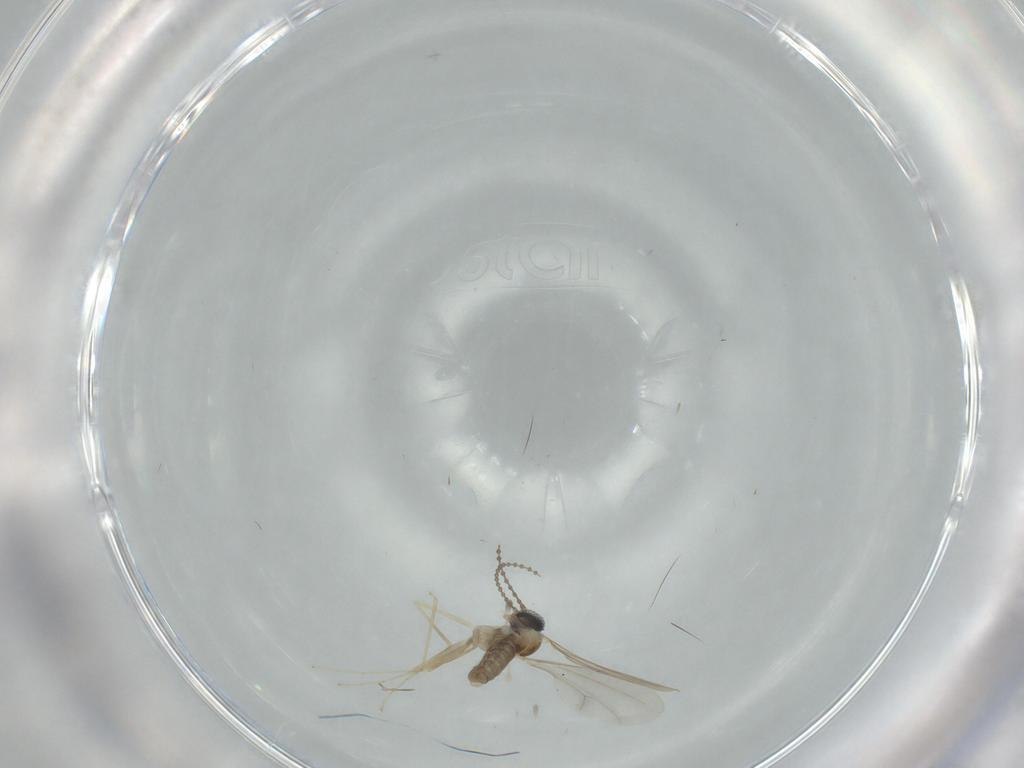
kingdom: Animalia
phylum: Arthropoda
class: Insecta
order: Diptera
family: Cecidomyiidae
